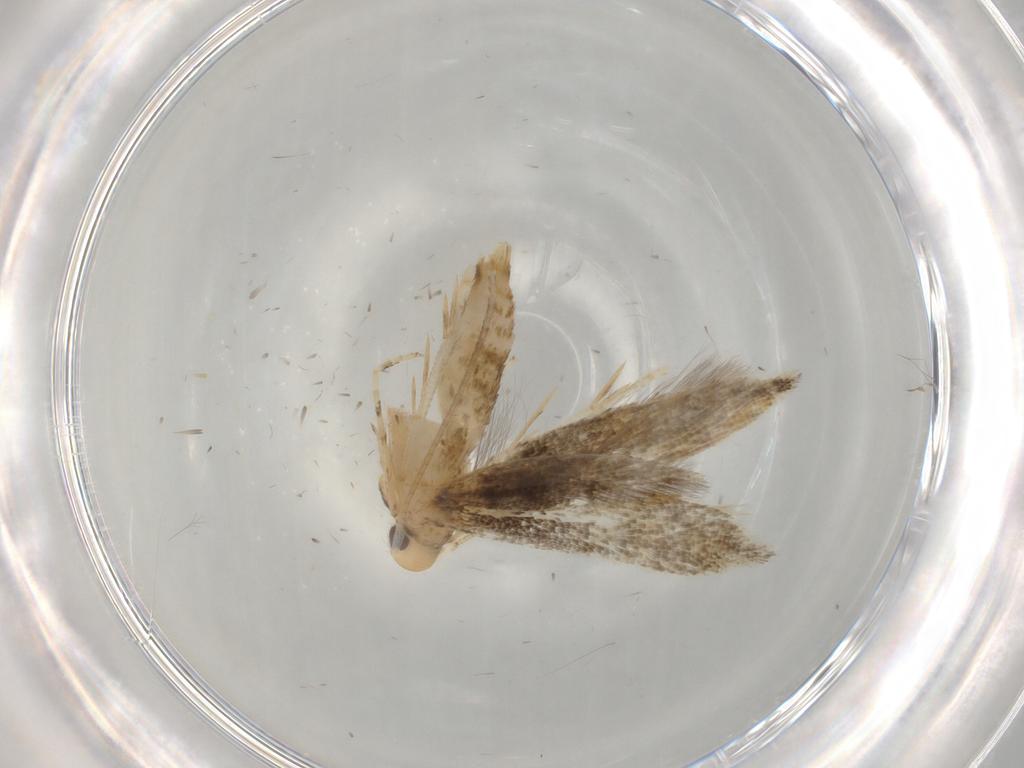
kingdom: Animalia
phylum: Arthropoda
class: Insecta
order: Lepidoptera
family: Momphidae
